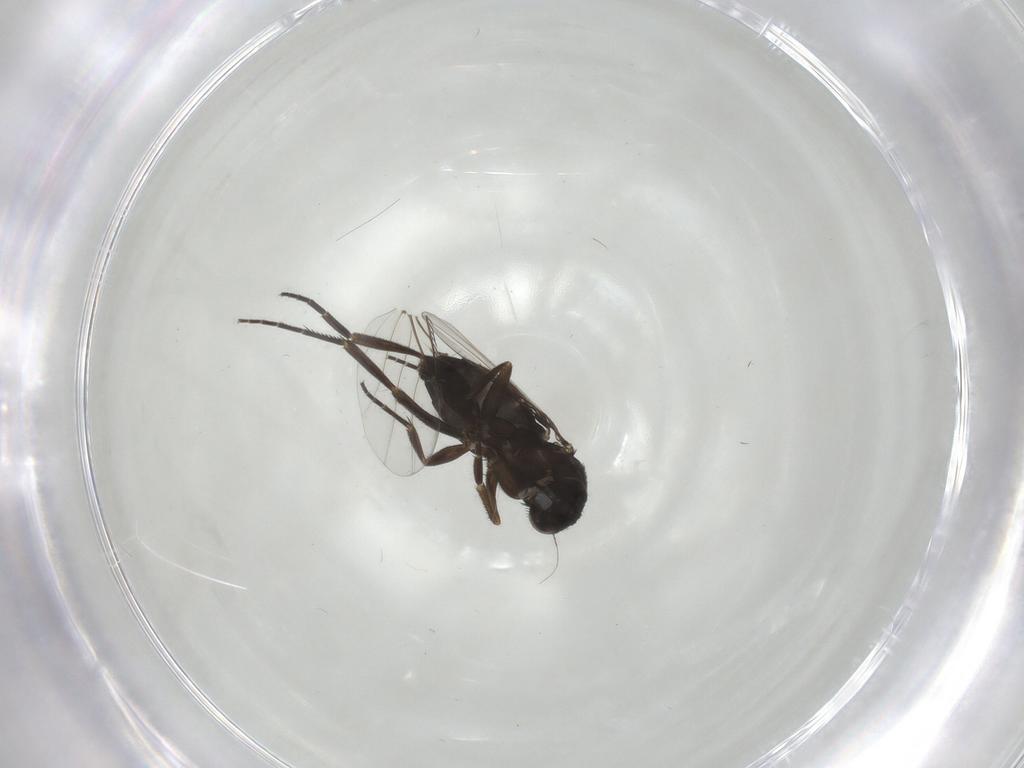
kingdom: Animalia
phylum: Arthropoda
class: Insecta
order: Diptera
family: Phoridae
